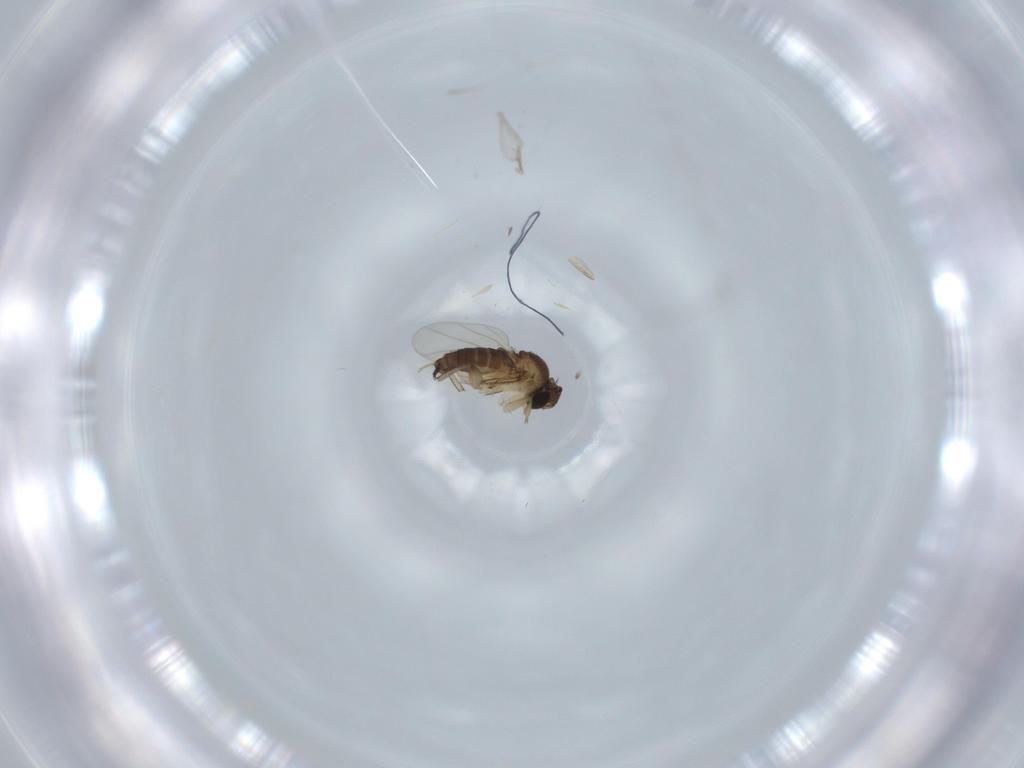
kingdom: Animalia
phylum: Arthropoda
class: Insecta
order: Diptera
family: Phoridae
